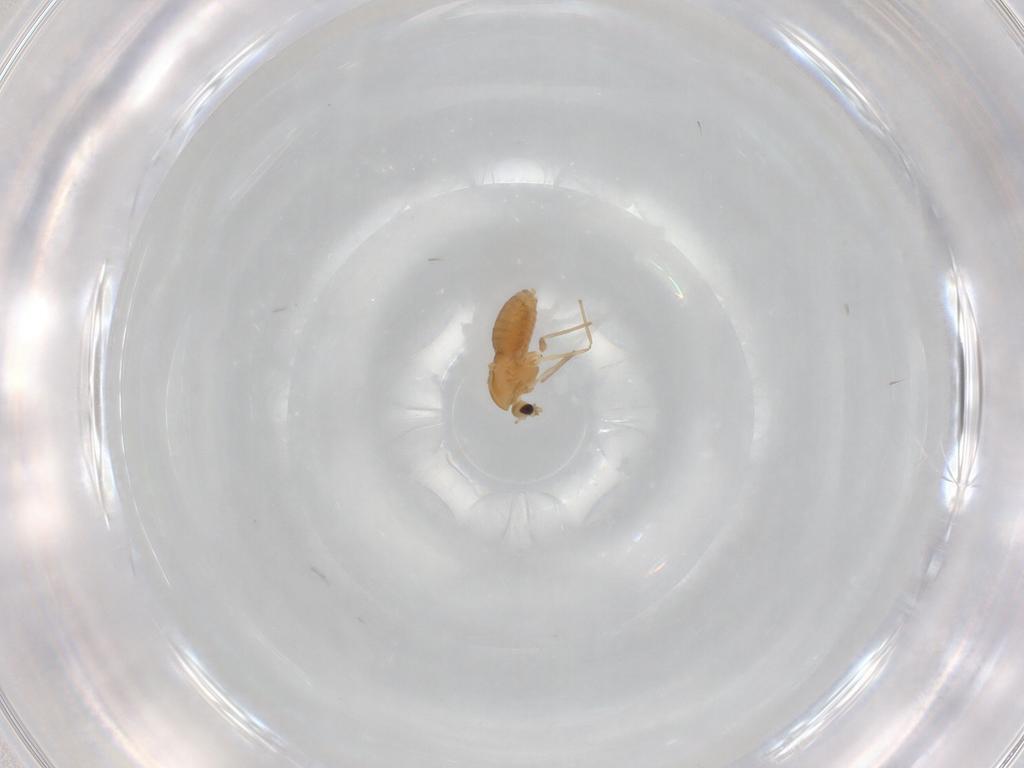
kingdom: Animalia
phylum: Arthropoda
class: Insecta
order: Diptera
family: Chironomidae
